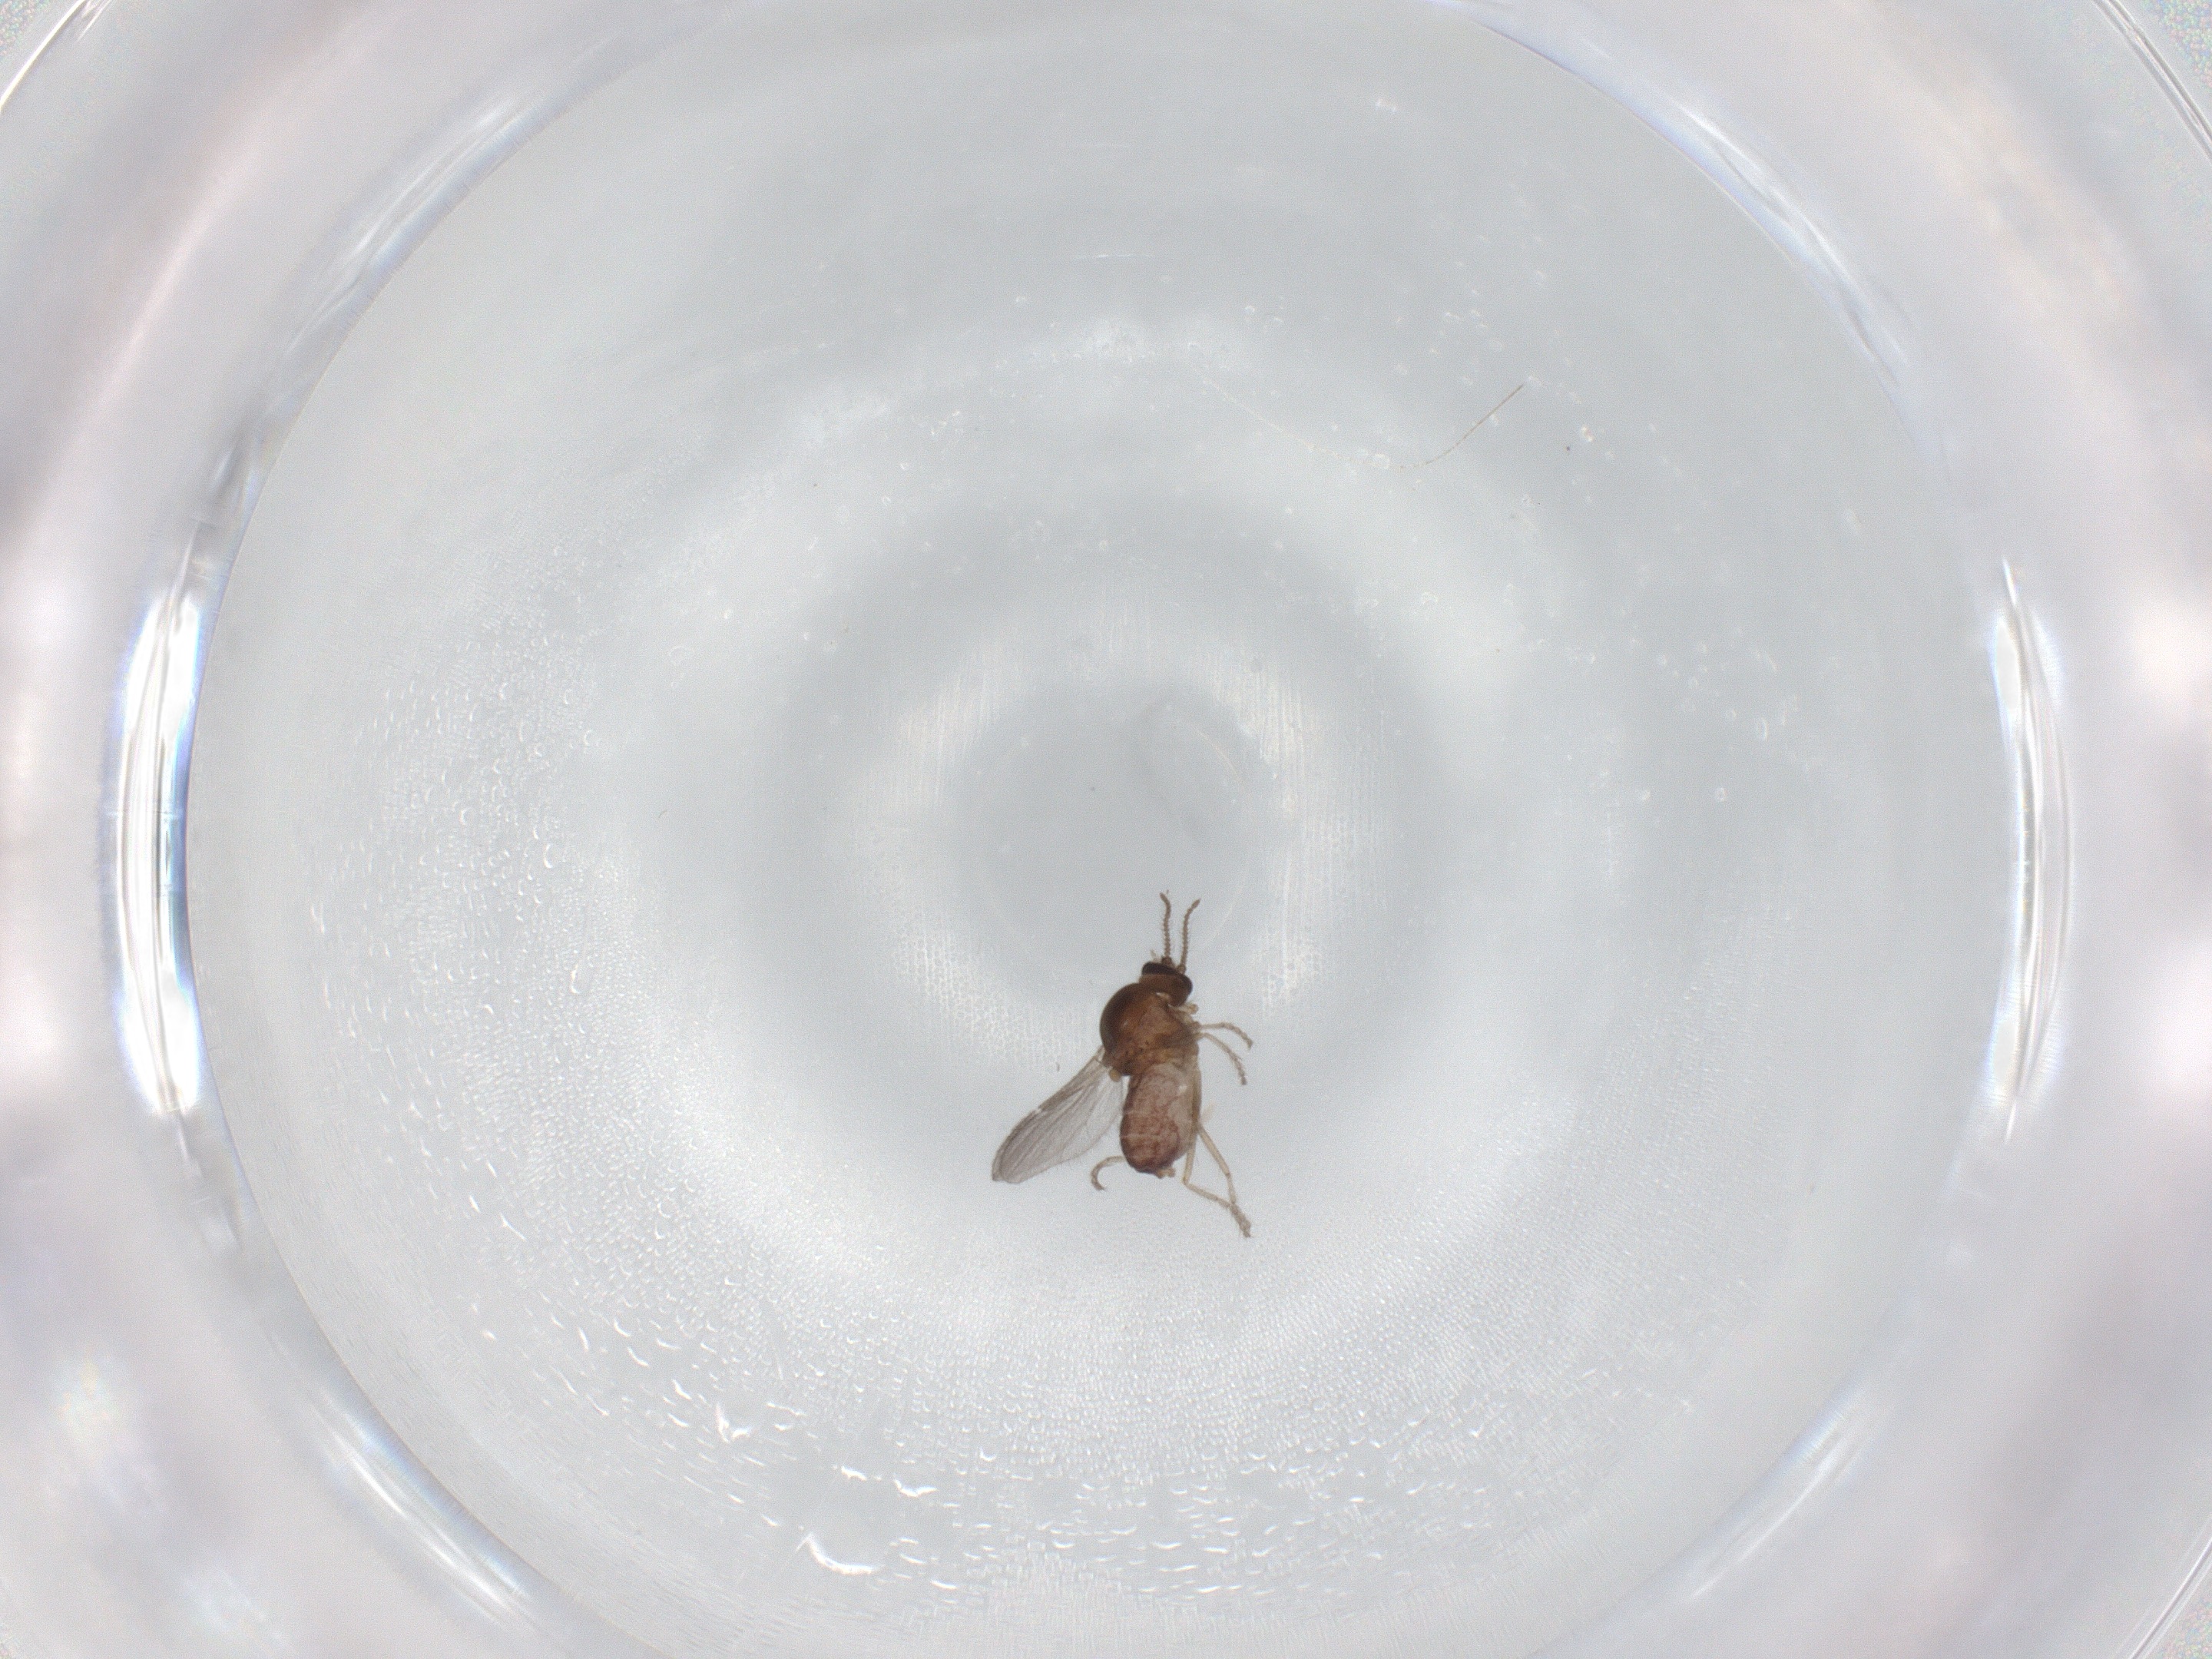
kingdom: Animalia
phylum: Arthropoda
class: Insecta
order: Diptera
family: Ceratopogonidae
